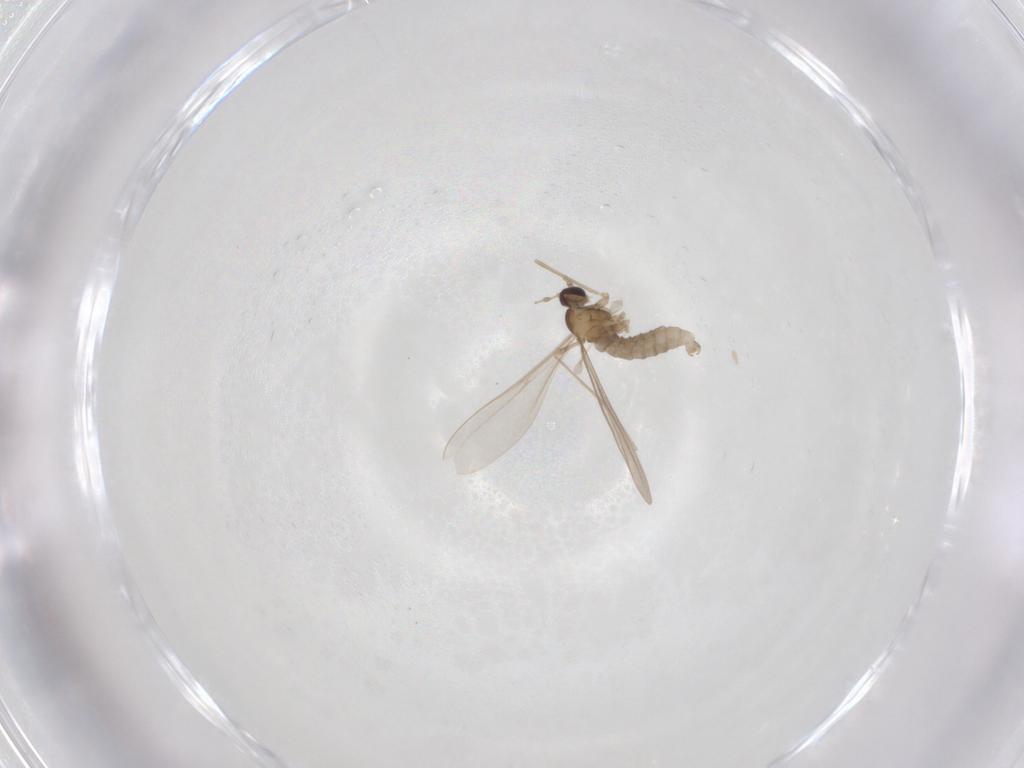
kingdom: Animalia
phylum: Arthropoda
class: Insecta
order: Diptera
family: Cecidomyiidae
